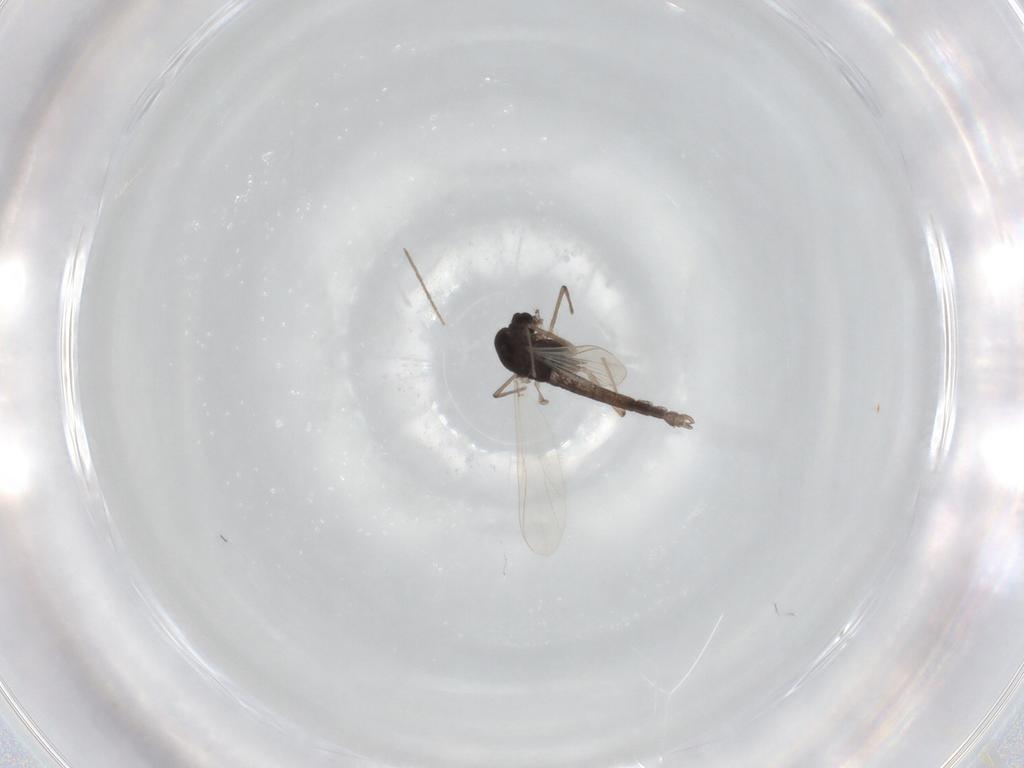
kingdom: Animalia
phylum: Arthropoda
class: Insecta
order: Diptera
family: Chironomidae
